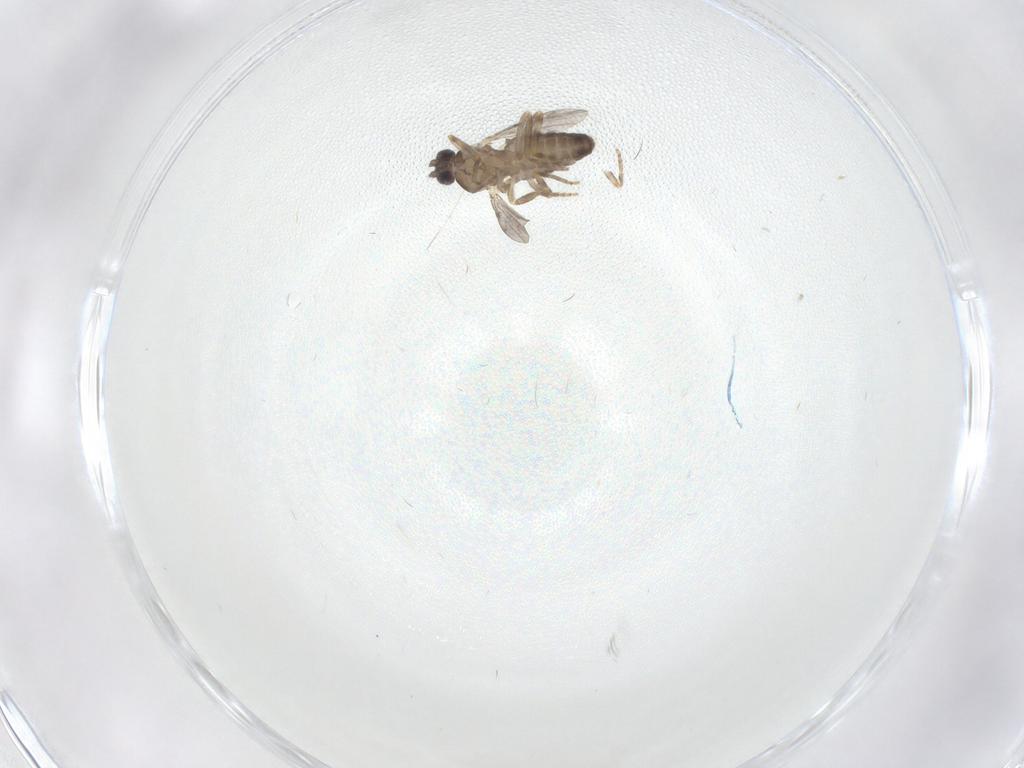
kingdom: Animalia
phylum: Arthropoda
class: Insecta
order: Diptera
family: Ceratopogonidae
